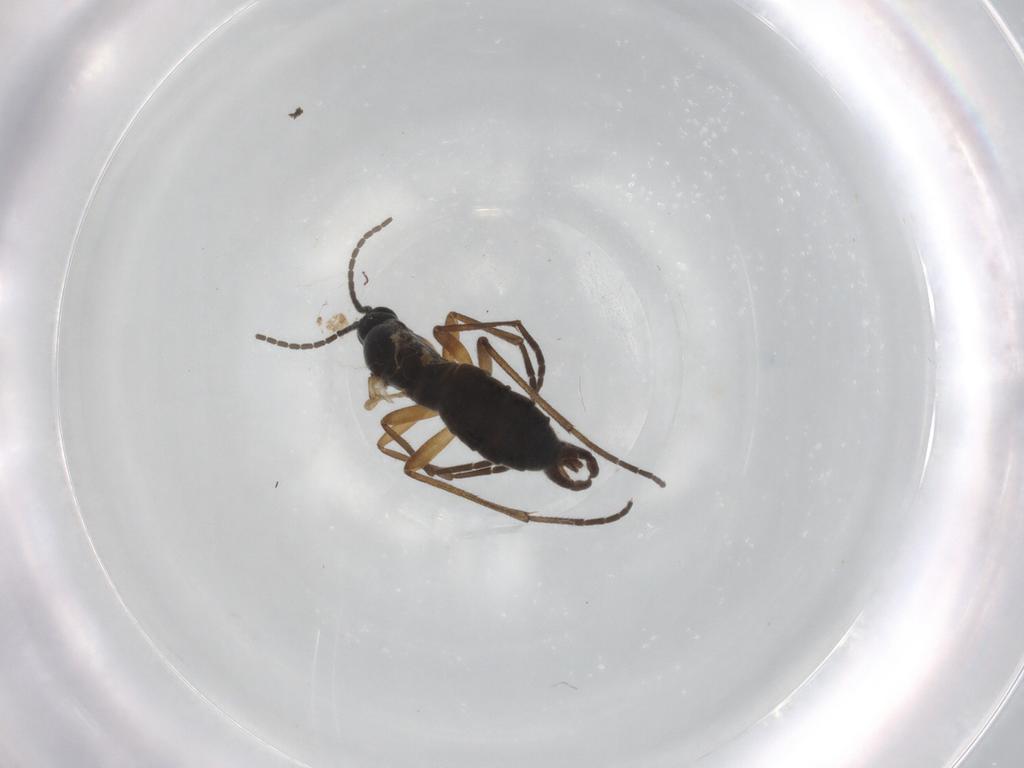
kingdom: Animalia
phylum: Arthropoda
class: Insecta
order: Diptera
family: Sciaridae
